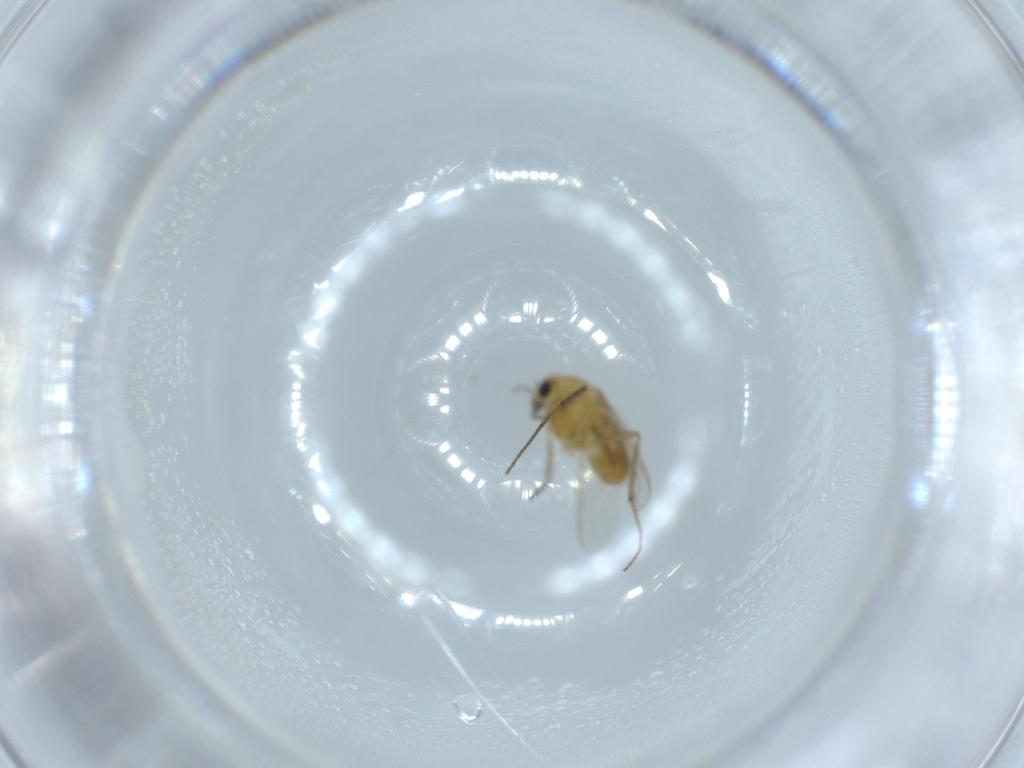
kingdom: Animalia
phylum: Arthropoda
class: Insecta
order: Diptera
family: Chironomidae
